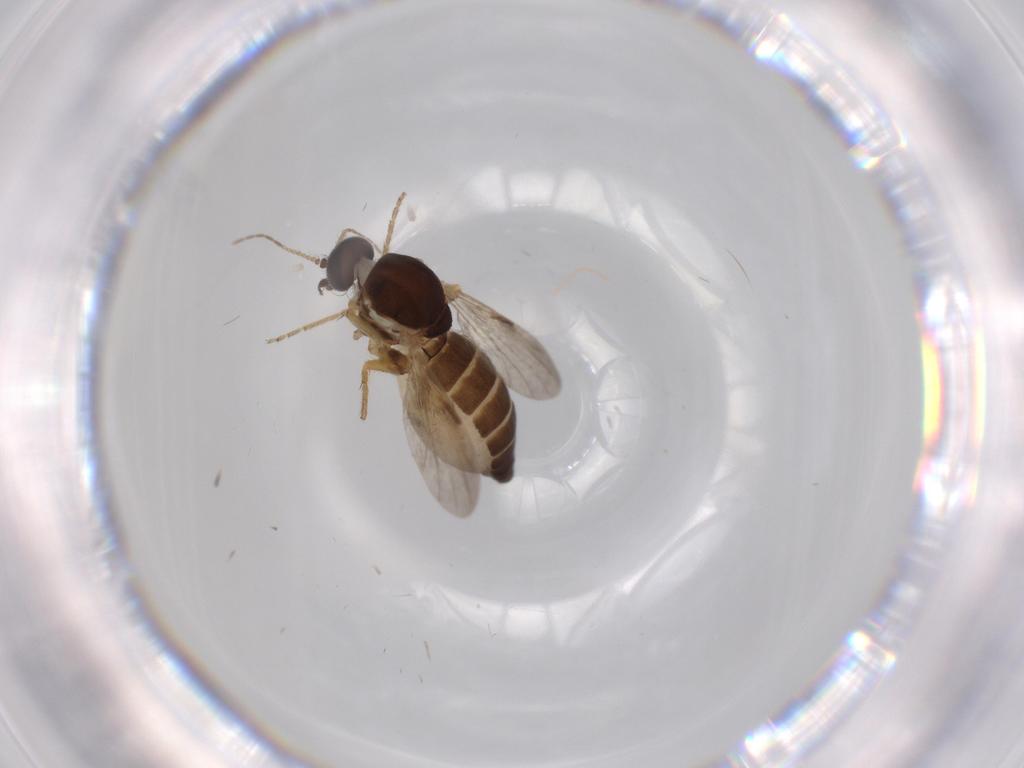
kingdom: Animalia
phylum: Arthropoda
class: Insecta
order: Diptera
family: Ceratopogonidae
